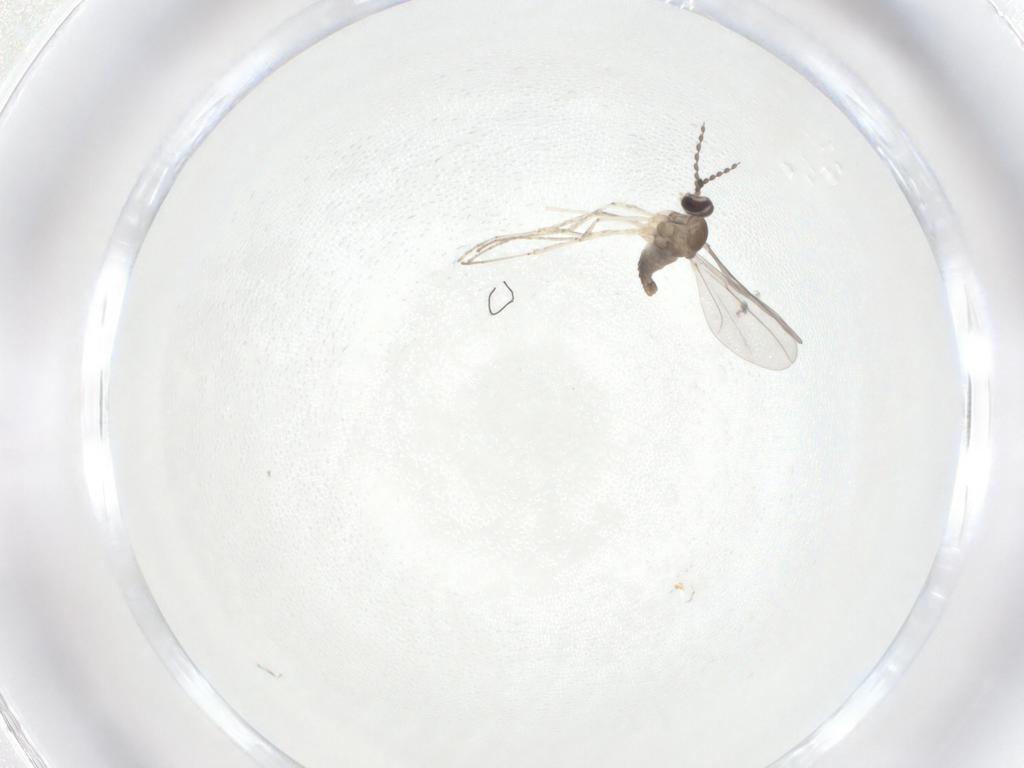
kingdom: Animalia
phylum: Arthropoda
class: Insecta
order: Diptera
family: Cecidomyiidae
